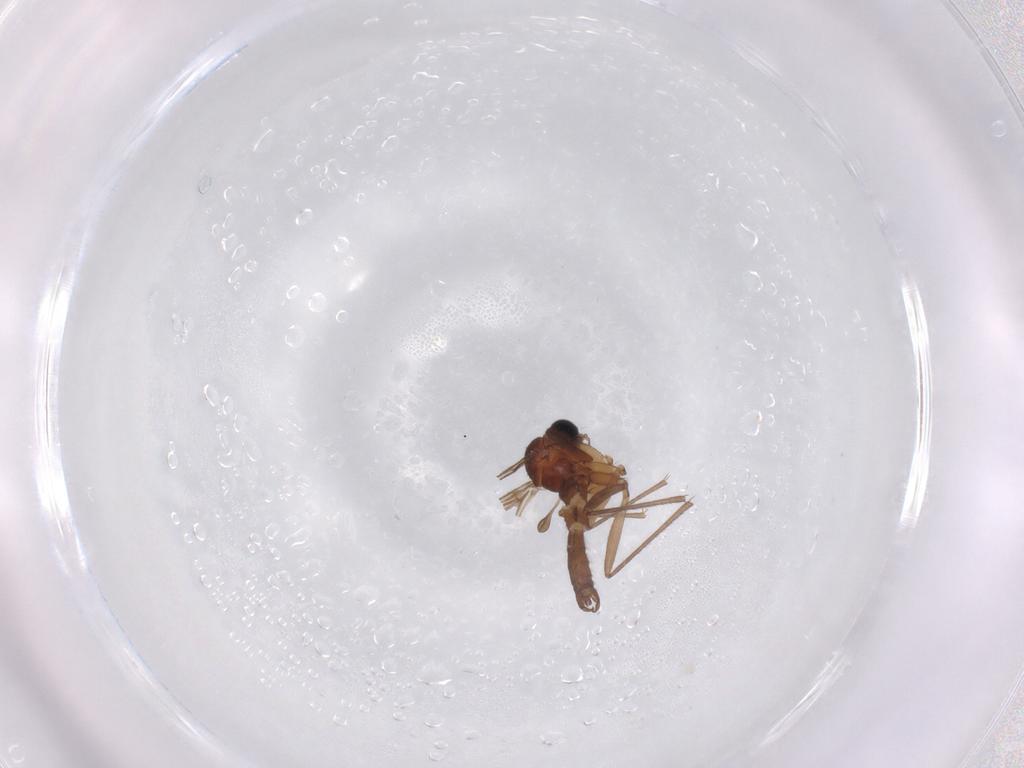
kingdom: Animalia
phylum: Arthropoda
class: Insecta
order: Diptera
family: Sciaridae
